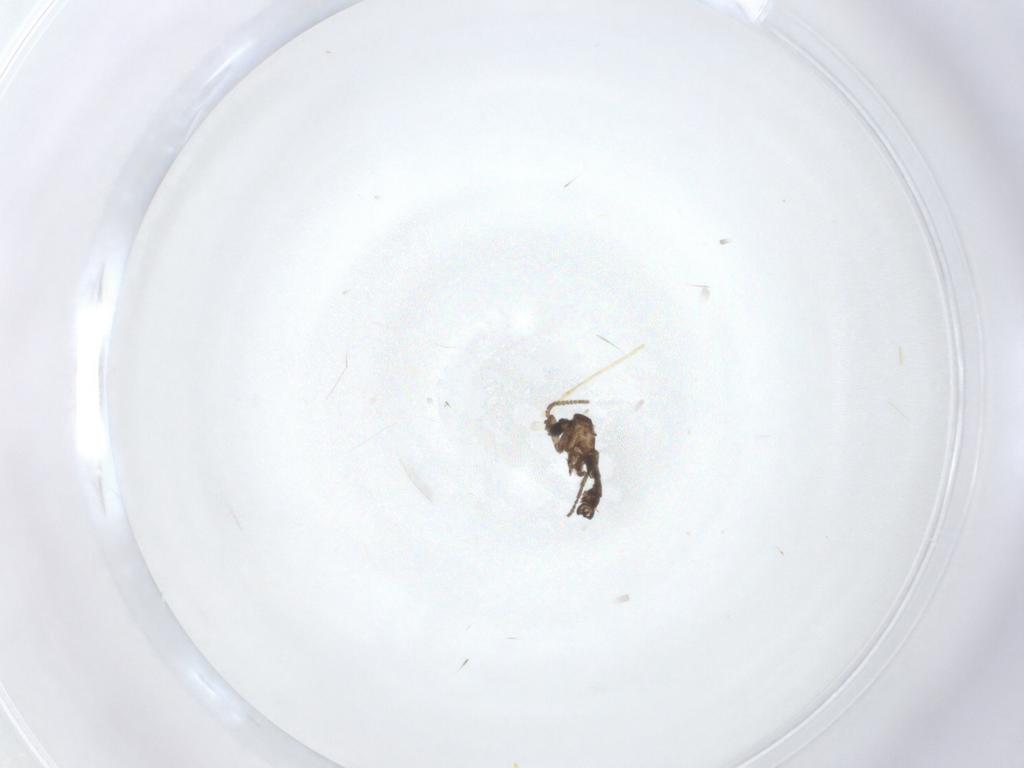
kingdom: Animalia
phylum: Arthropoda
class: Insecta
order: Diptera
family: Sciaridae
